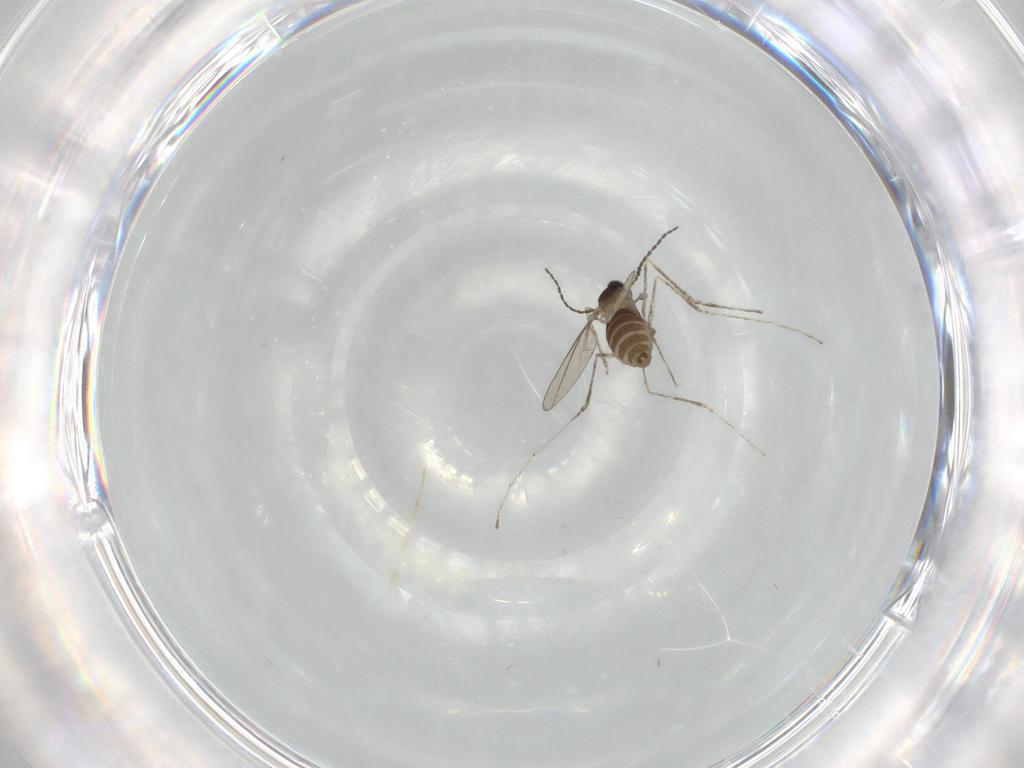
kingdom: Animalia
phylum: Arthropoda
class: Insecta
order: Diptera
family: Cecidomyiidae
